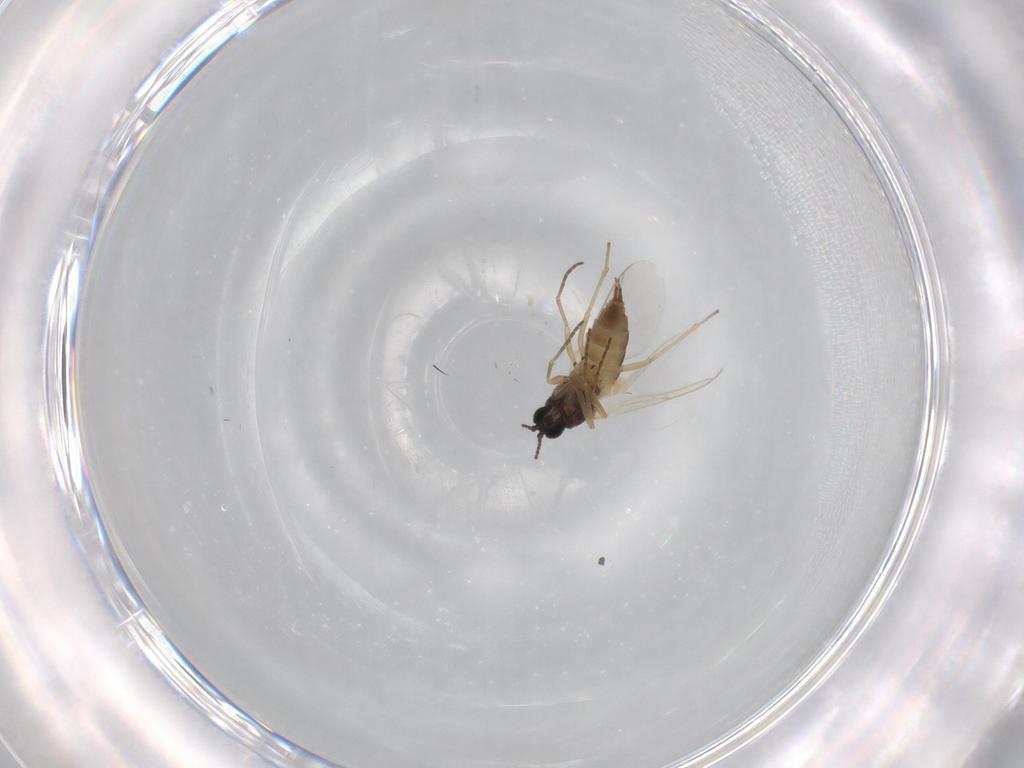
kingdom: Animalia
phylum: Arthropoda
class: Insecta
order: Diptera
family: Sciaridae
